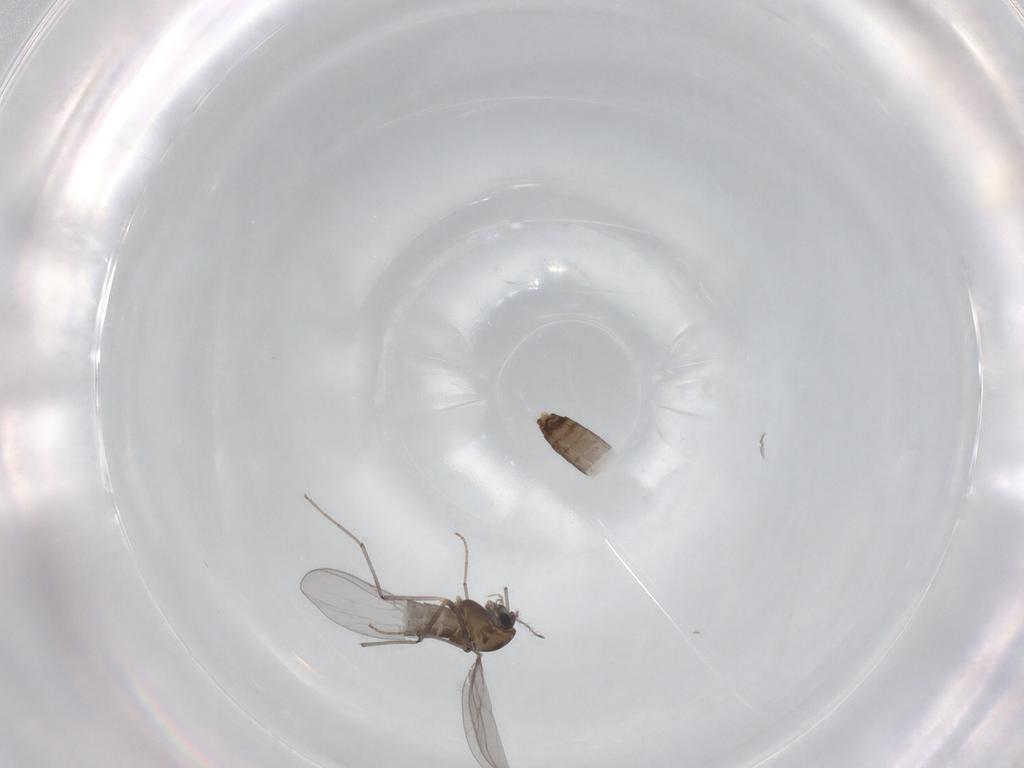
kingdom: Animalia
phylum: Arthropoda
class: Insecta
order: Diptera
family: Chironomidae
